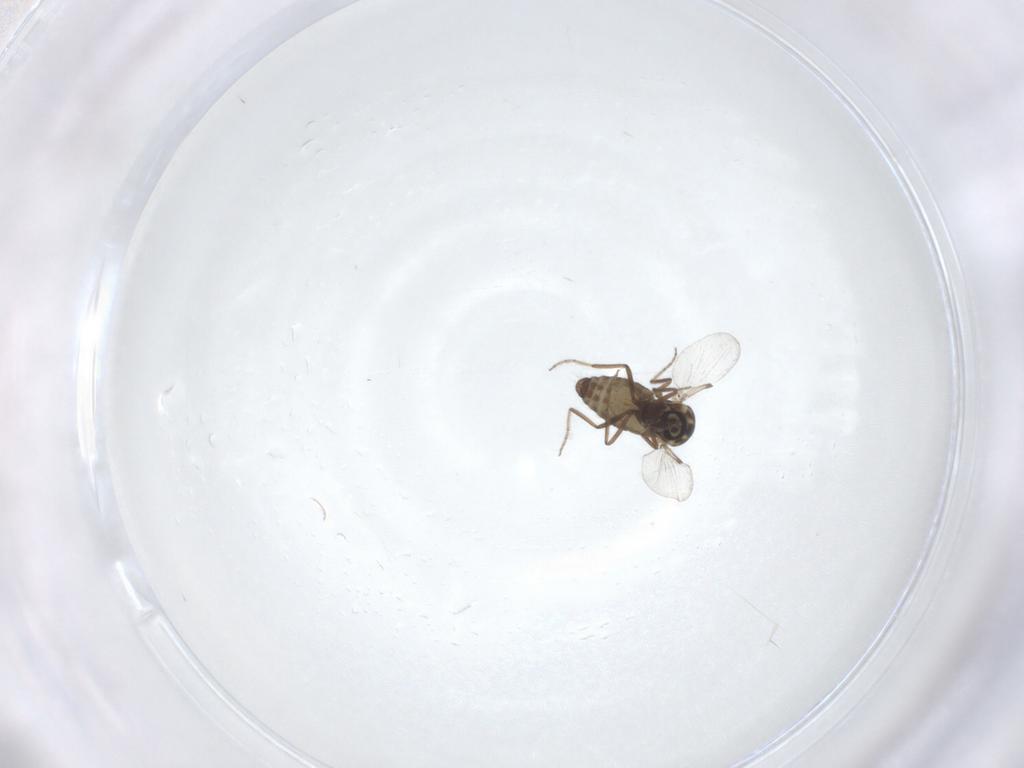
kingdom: Animalia
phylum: Arthropoda
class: Insecta
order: Diptera
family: Ceratopogonidae
